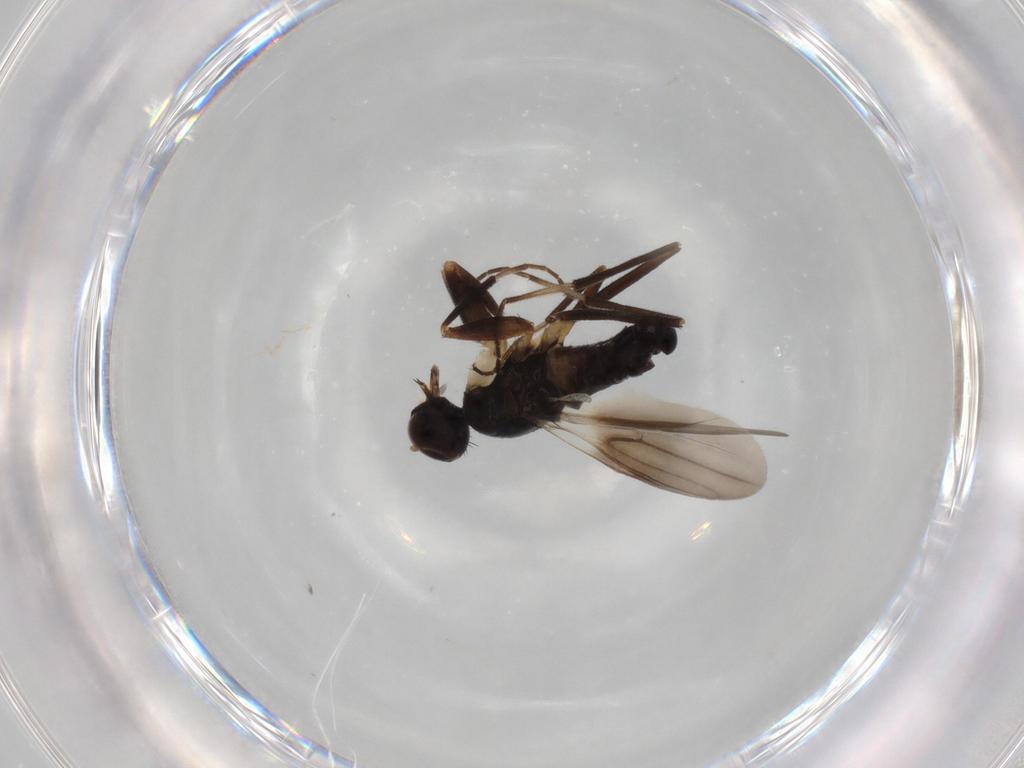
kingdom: Animalia
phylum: Arthropoda
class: Insecta
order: Diptera
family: Hybotidae
